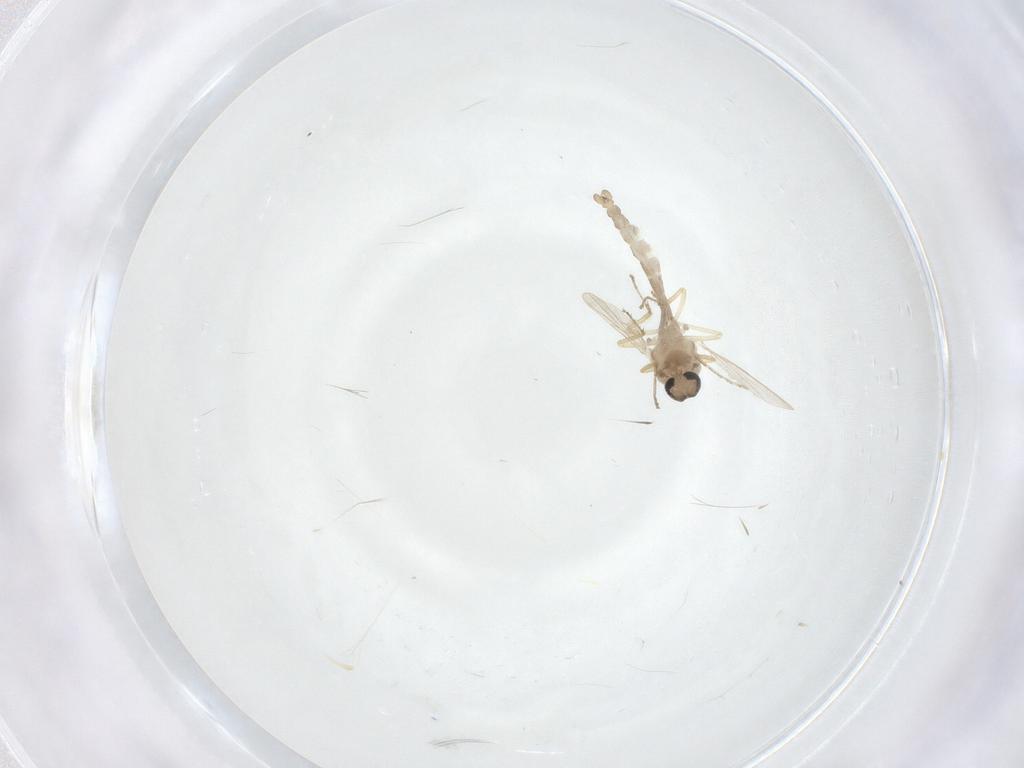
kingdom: Animalia
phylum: Arthropoda
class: Insecta
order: Diptera
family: Ceratopogonidae
